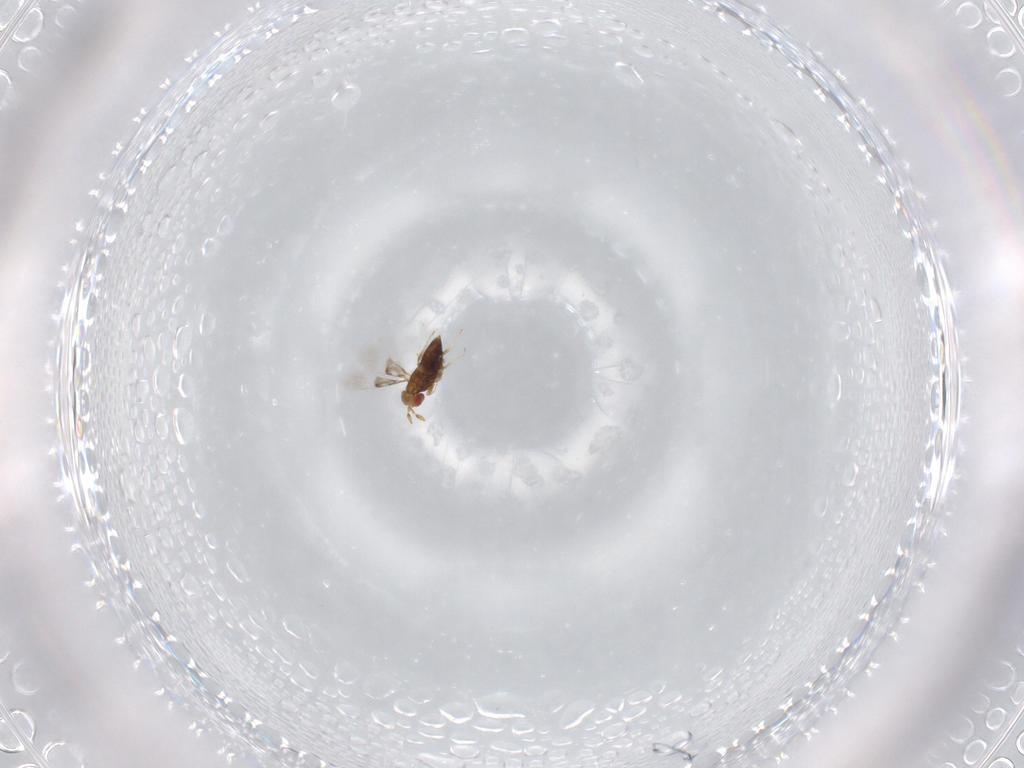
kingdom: Animalia
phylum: Arthropoda
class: Insecta
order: Hymenoptera
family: Trichogrammatidae
